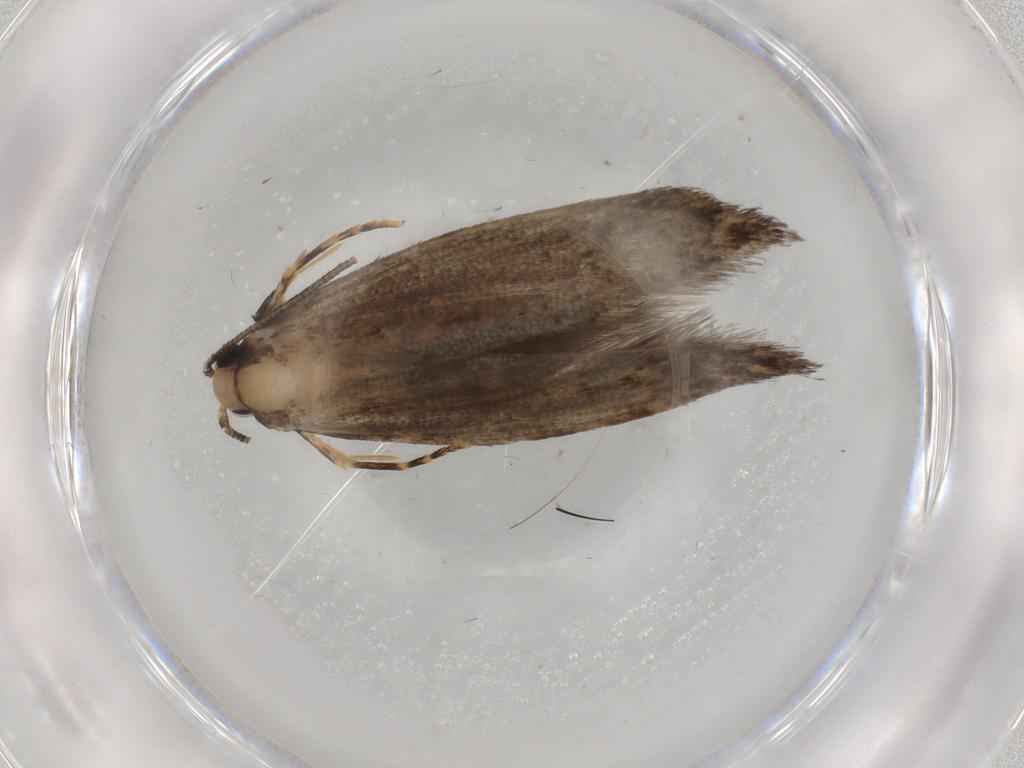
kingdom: Animalia
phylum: Arthropoda
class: Insecta
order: Lepidoptera
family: Tineidae
